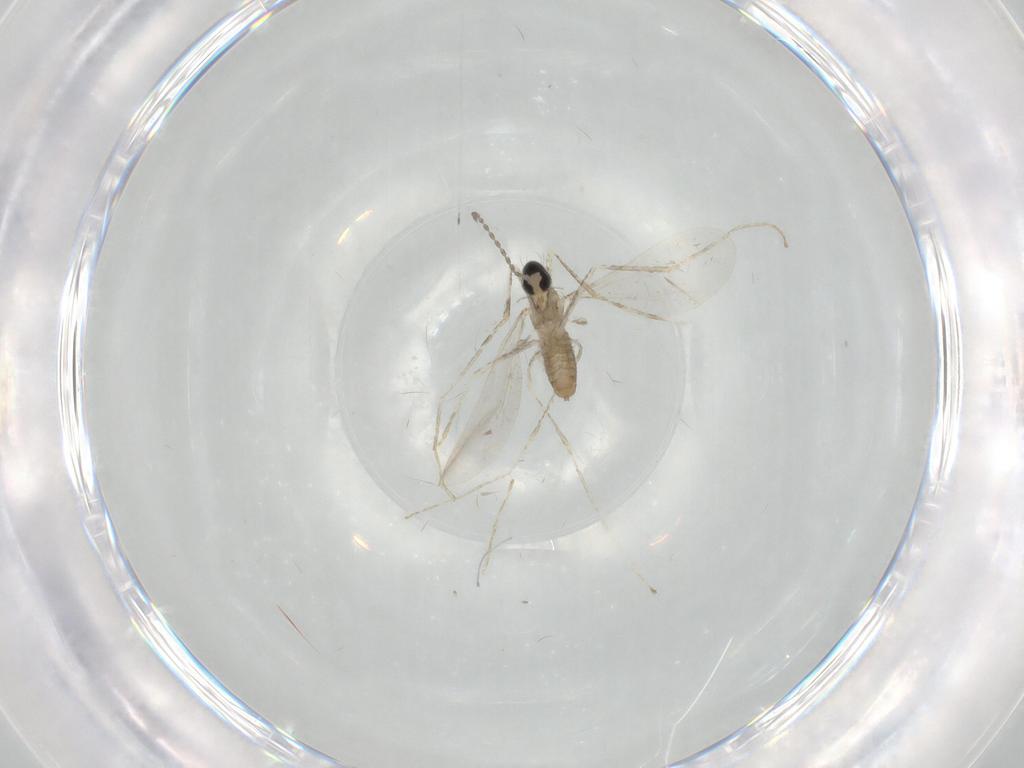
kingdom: Animalia
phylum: Arthropoda
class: Insecta
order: Diptera
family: Cecidomyiidae
